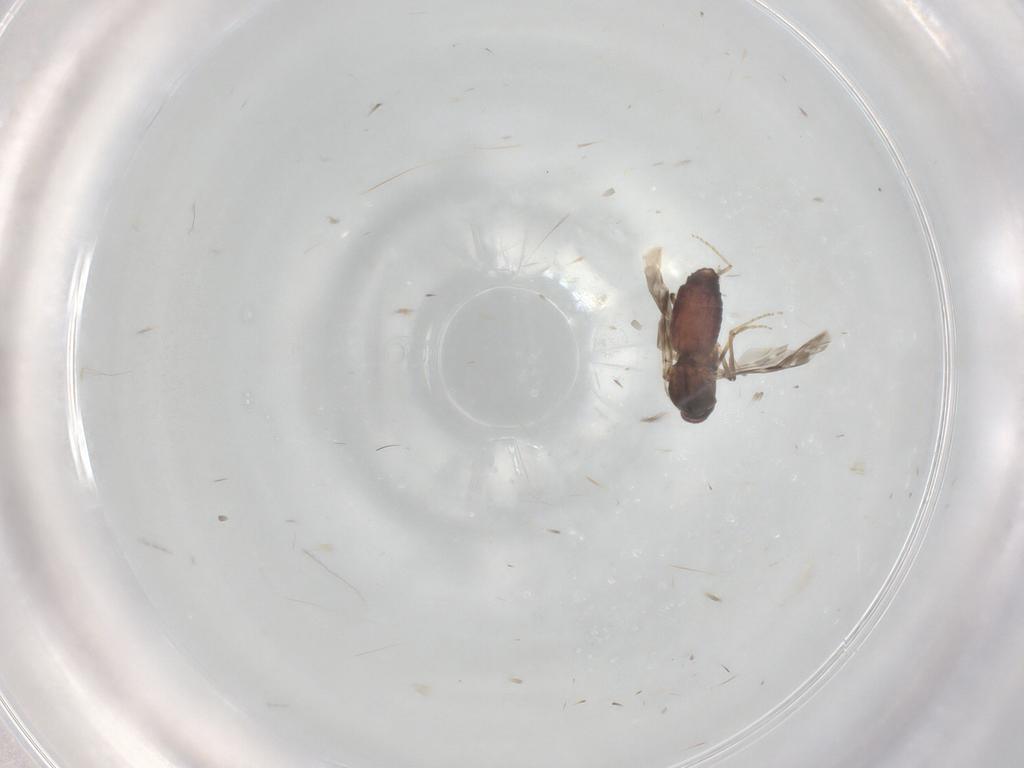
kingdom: Animalia
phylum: Arthropoda
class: Insecta
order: Diptera
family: Ceratopogonidae
